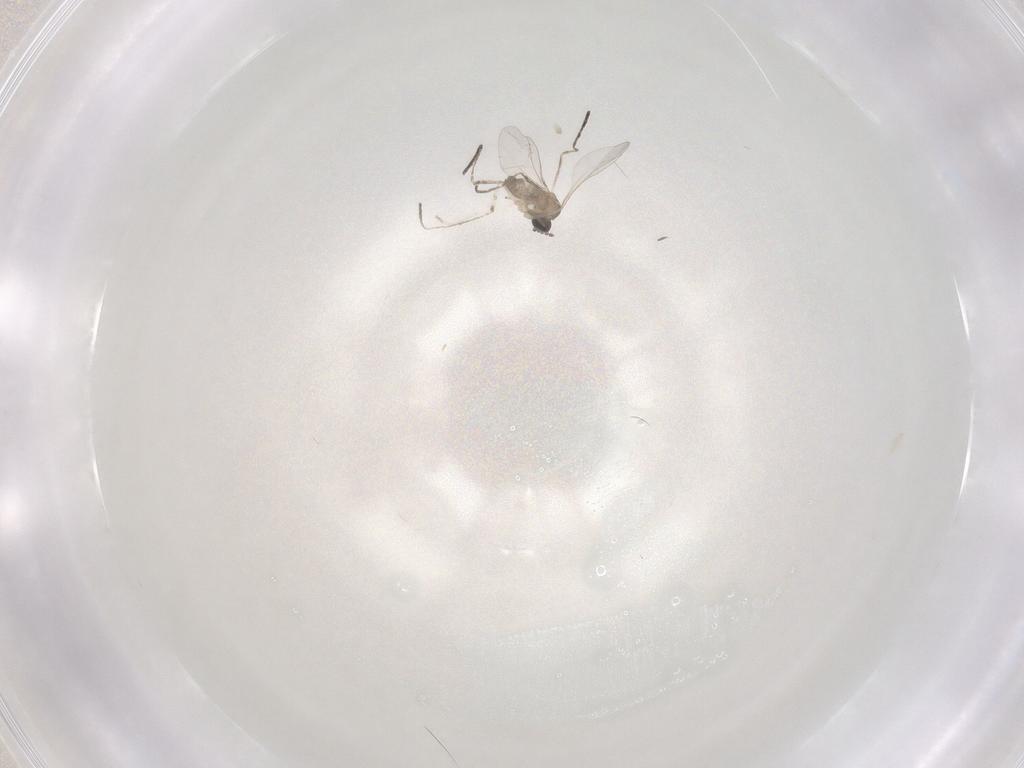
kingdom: Animalia
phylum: Arthropoda
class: Insecta
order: Diptera
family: Cecidomyiidae
